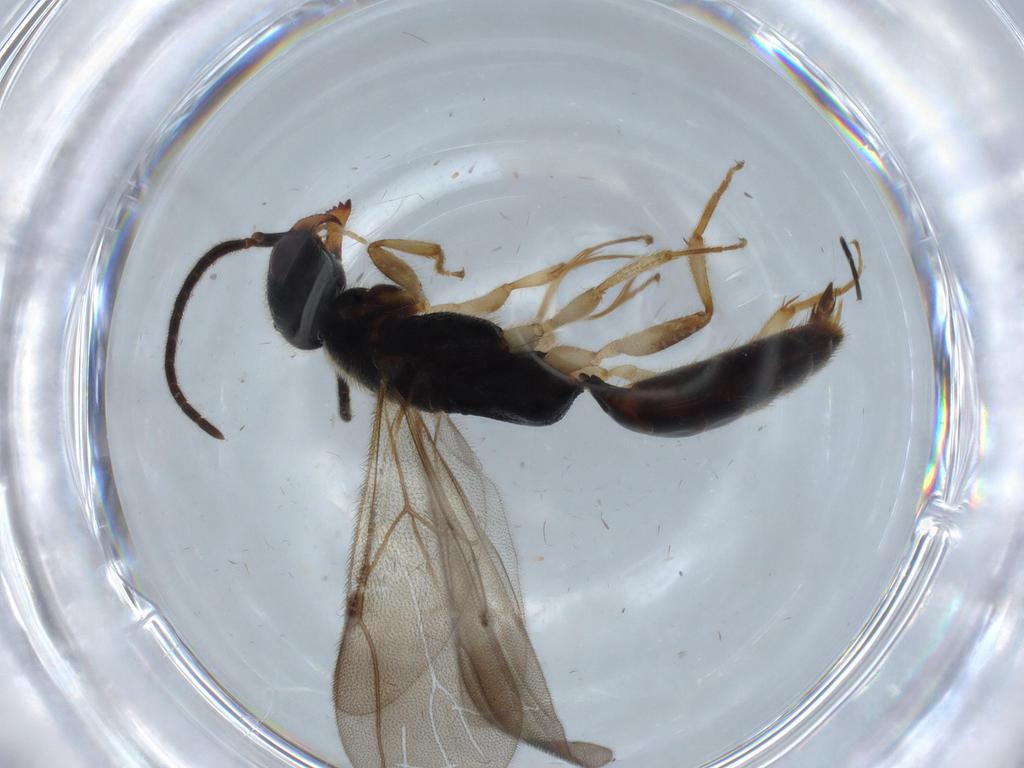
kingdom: Animalia
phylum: Arthropoda
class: Insecta
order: Hymenoptera
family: Bethylidae
